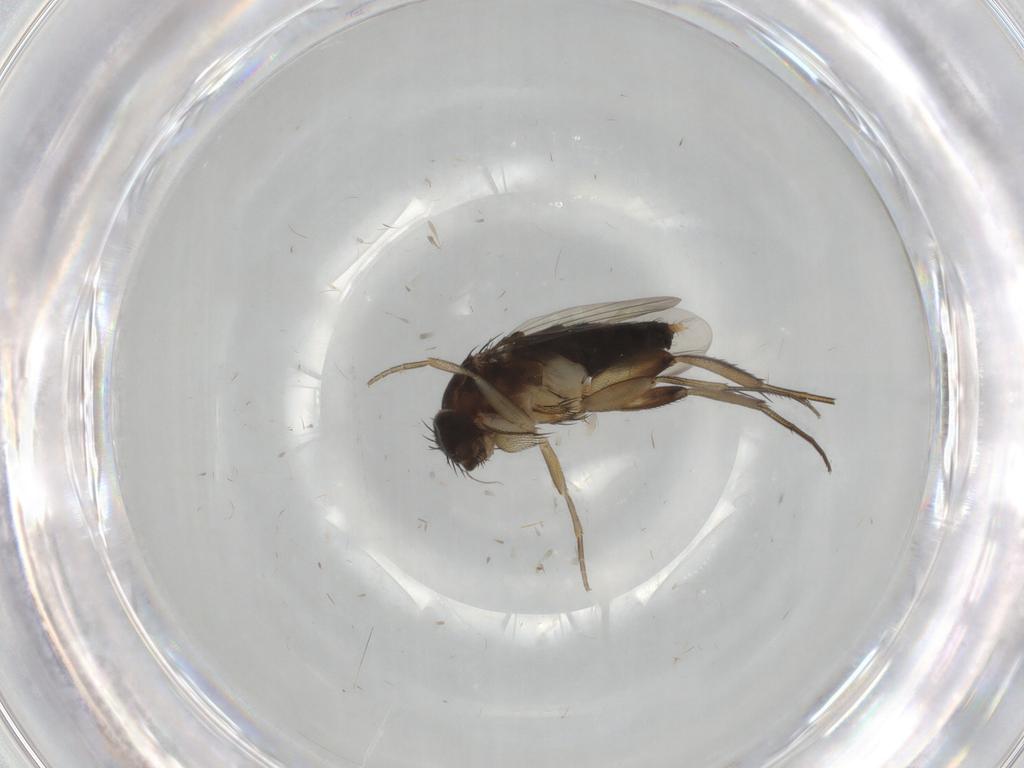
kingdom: Animalia
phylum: Arthropoda
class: Insecta
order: Diptera
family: Phoridae
